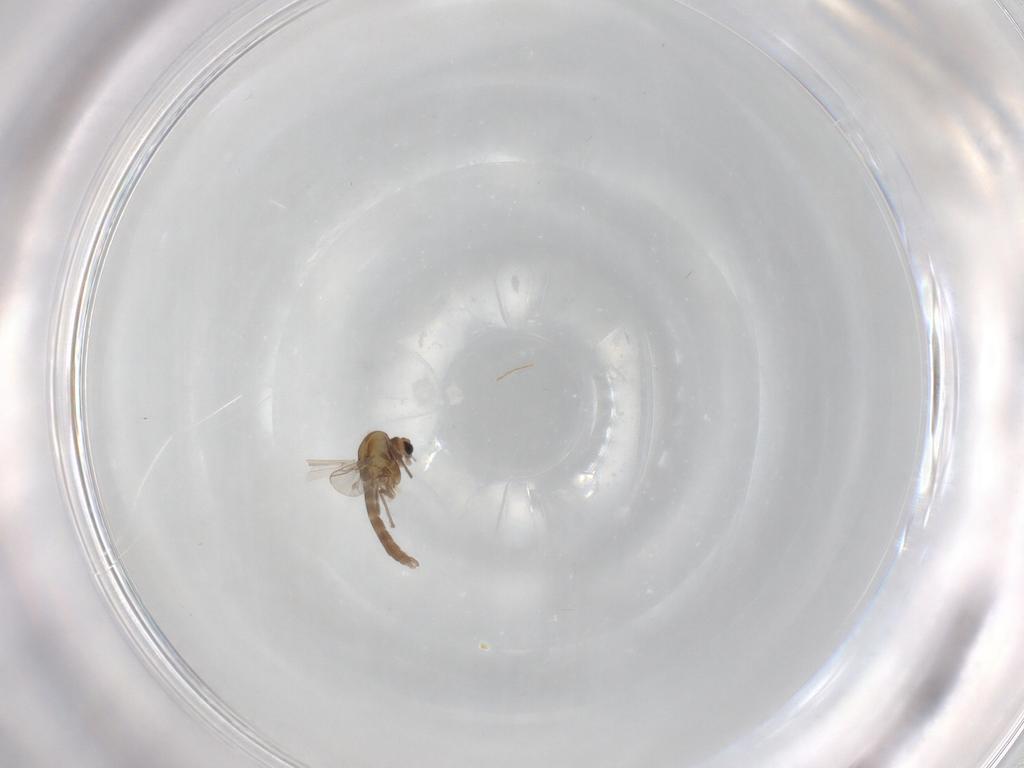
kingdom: Animalia
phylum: Arthropoda
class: Insecta
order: Diptera
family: Chironomidae
